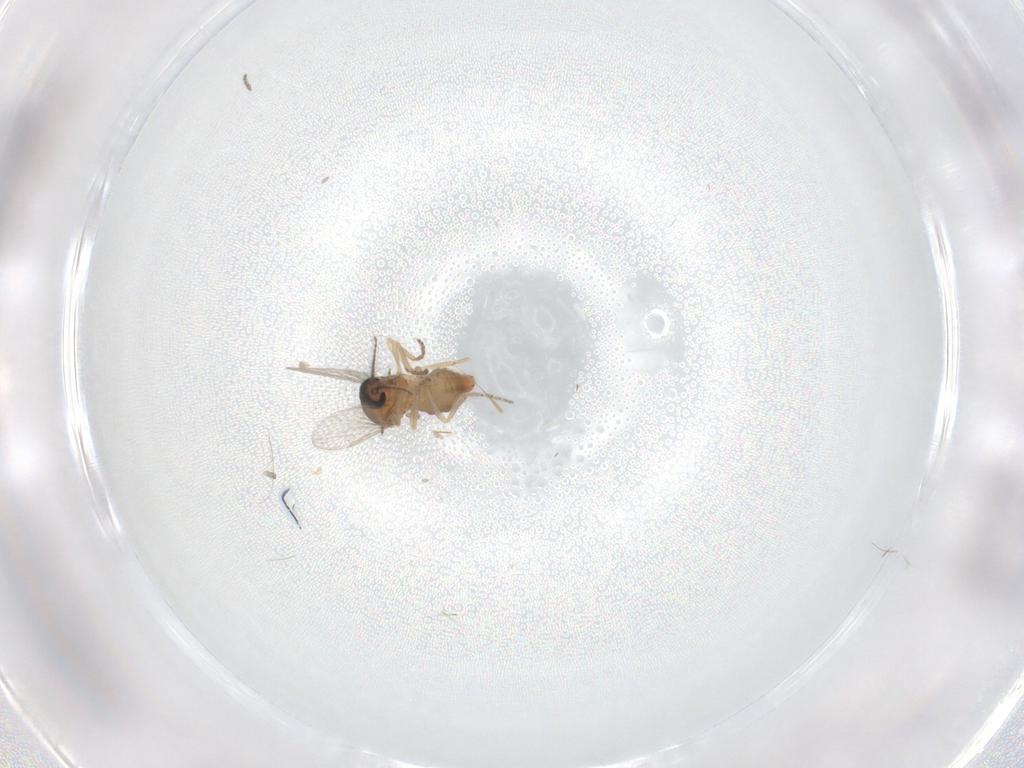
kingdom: Animalia
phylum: Arthropoda
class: Insecta
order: Diptera
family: Ceratopogonidae
